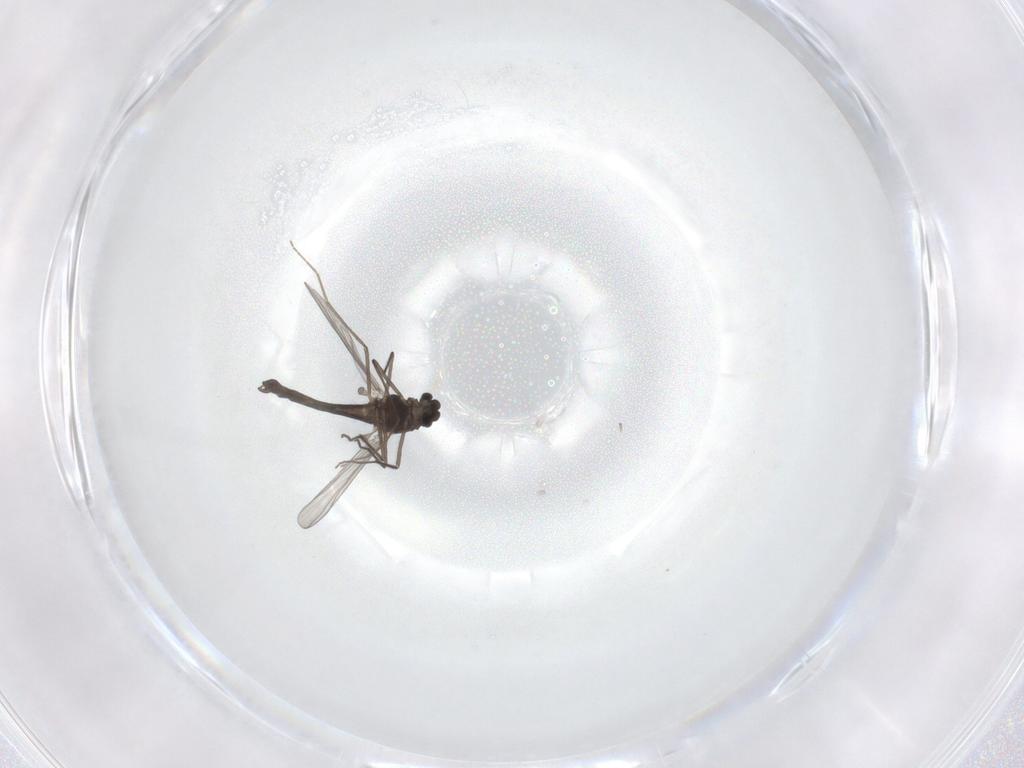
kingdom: Animalia
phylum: Arthropoda
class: Insecta
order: Diptera
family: Chironomidae
